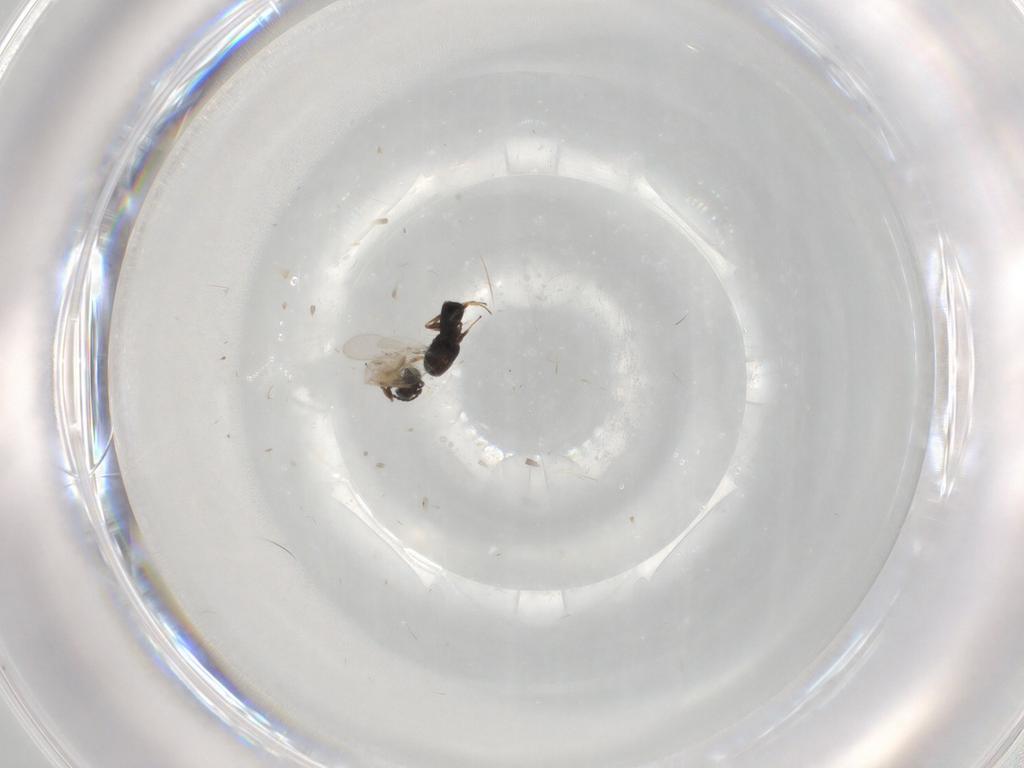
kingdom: Animalia
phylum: Arthropoda
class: Insecta
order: Hymenoptera
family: Scelionidae
